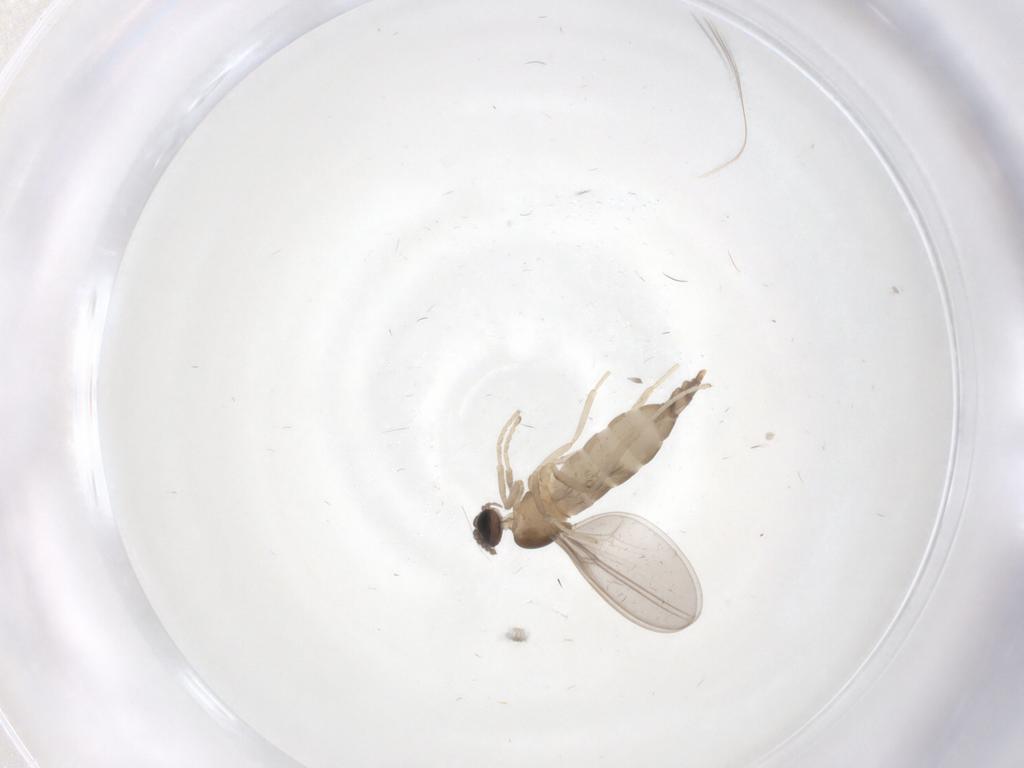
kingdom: Animalia
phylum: Arthropoda
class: Insecta
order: Diptera
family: Cecidomyiidae
